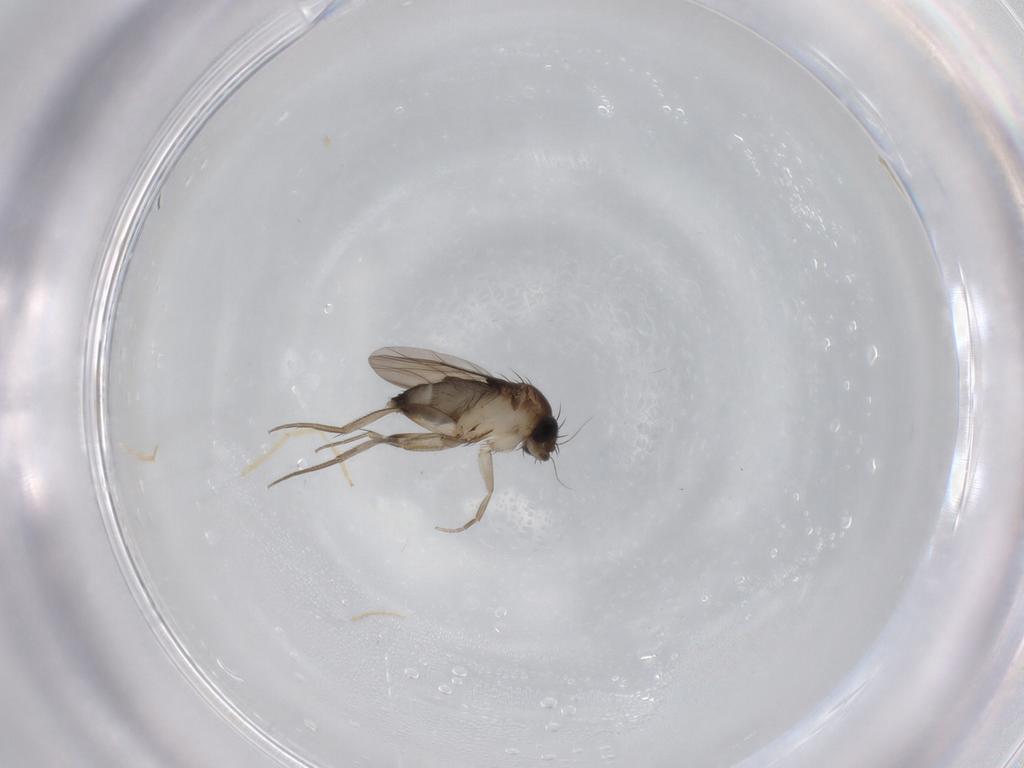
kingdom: Animalia
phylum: Arthropoda
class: Insecta
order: Diptera
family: Phoridae
